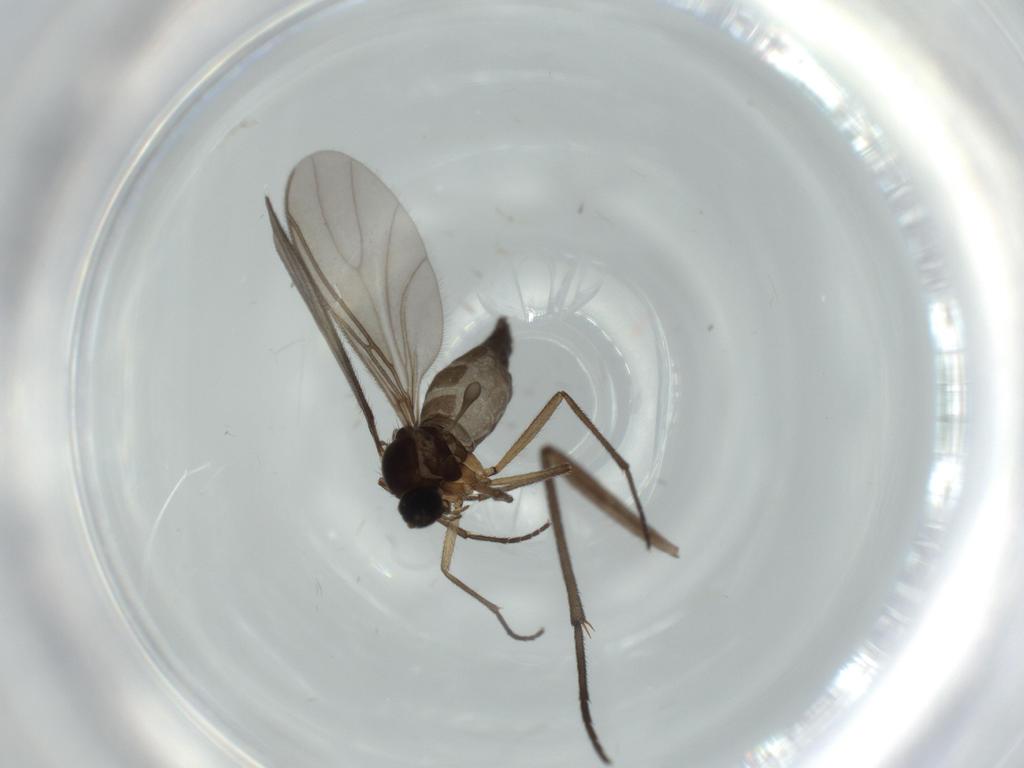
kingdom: Animalia
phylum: Arthropoda
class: Insecta
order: Diptera
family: Sciaridae
